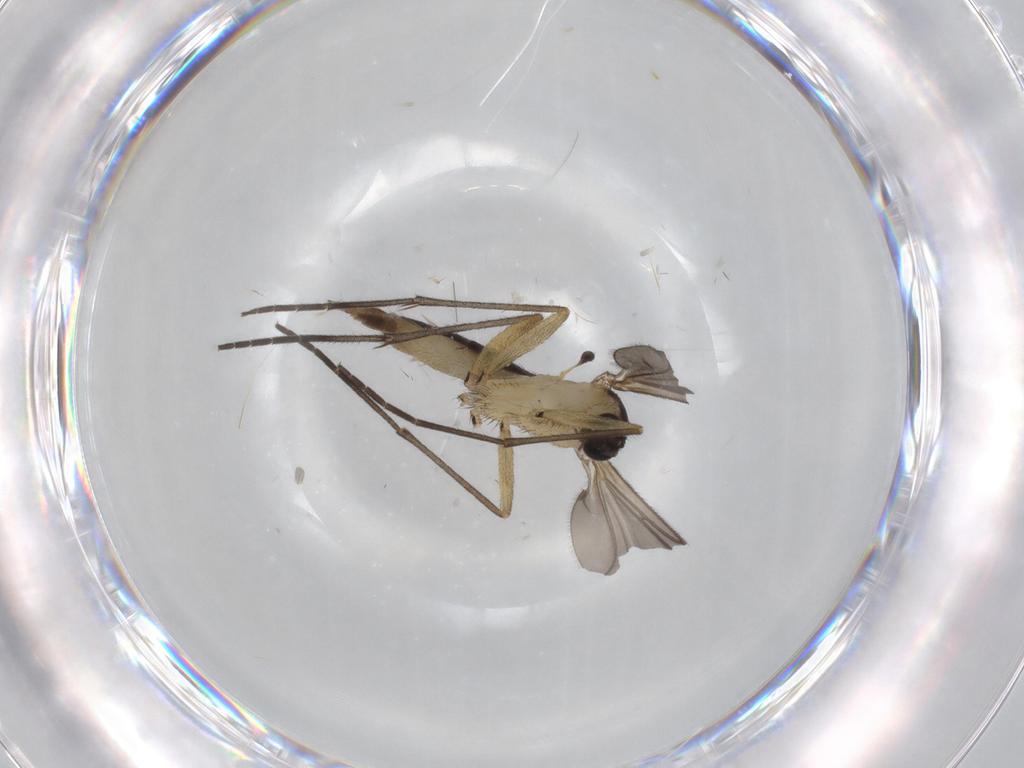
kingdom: Animalia
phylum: Arthropoda
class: Insecta
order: Diptera
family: Sciaridae
